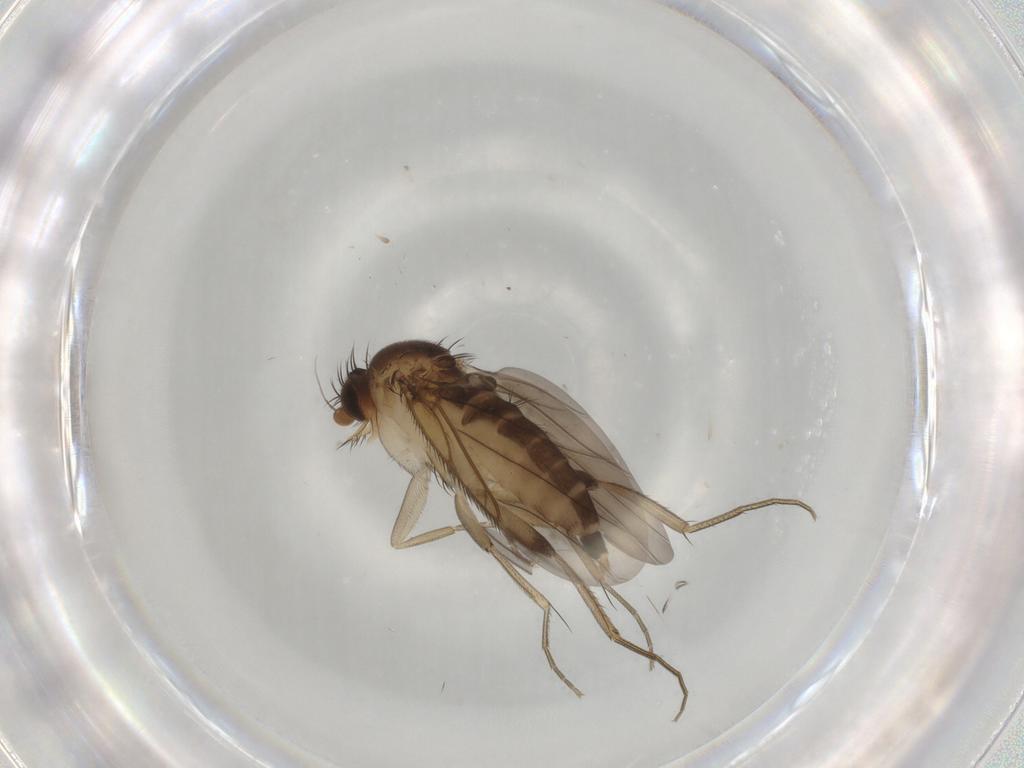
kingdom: Animalia
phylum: Arthropoda
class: Insecta
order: Diptera
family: Phoridae
